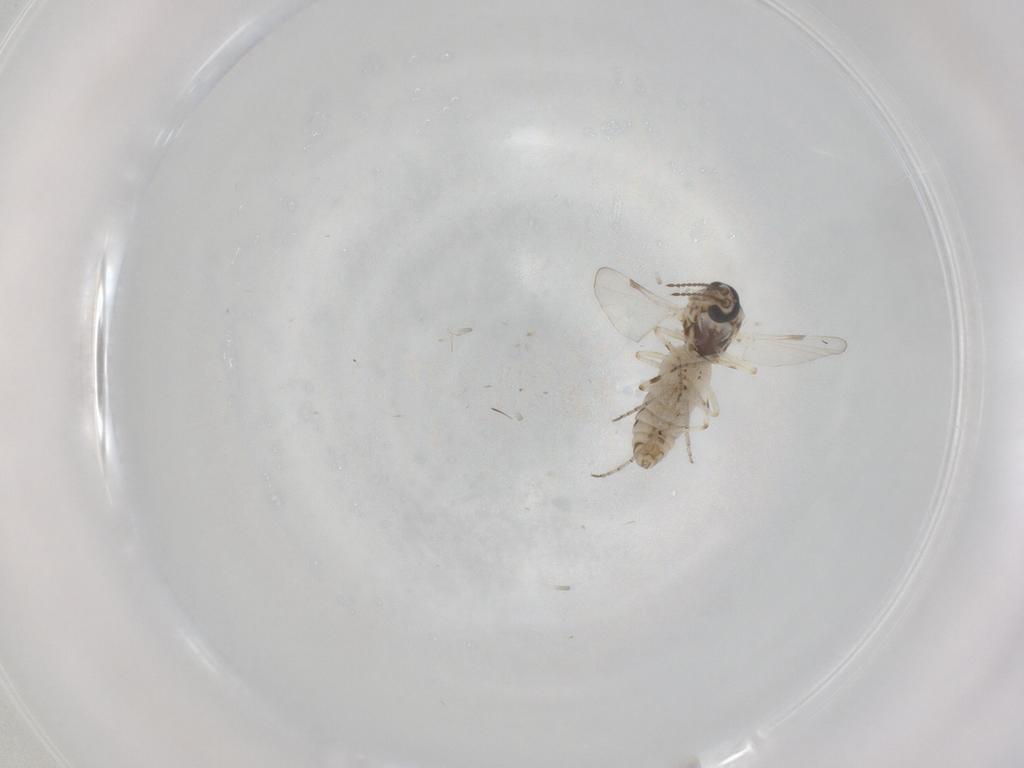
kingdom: Animalia
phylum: Arthropoda
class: Insecta
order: Diptera
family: Ceratopogonidae
